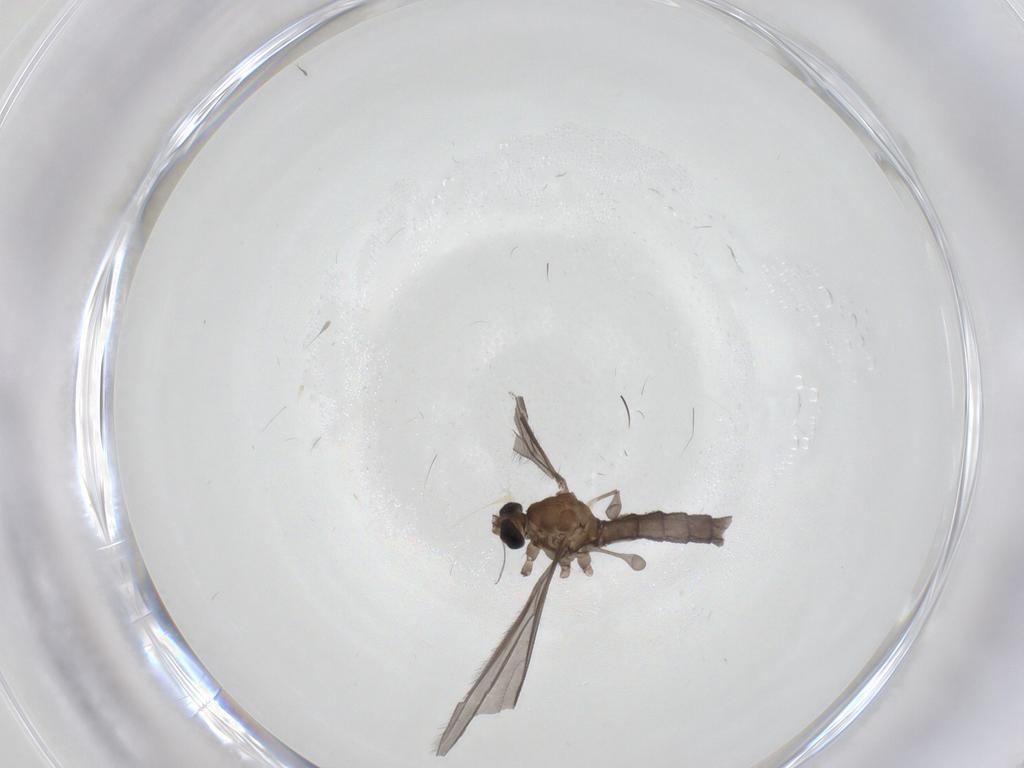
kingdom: Animalia
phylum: Arthropoda
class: Insecta
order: Diptera
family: Limoniidae
